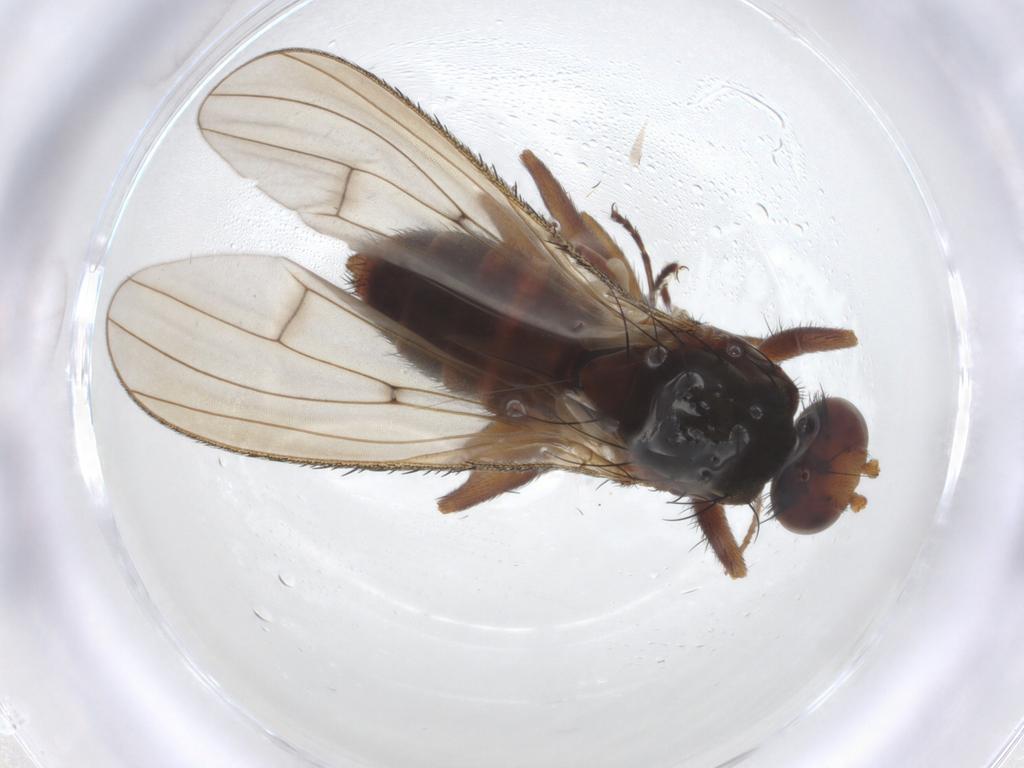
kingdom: Animalia
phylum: Arthropoda
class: Insecta
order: Diptera
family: Heleomyzidae
